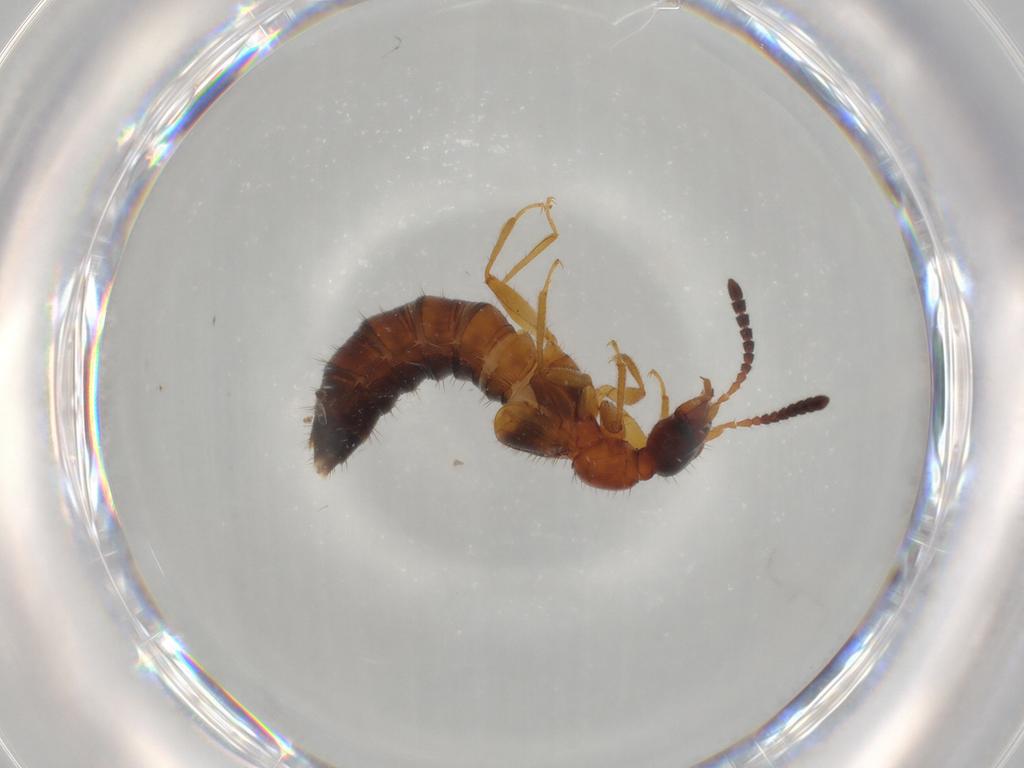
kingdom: Animalia
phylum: Arthropoda
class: Insecta
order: Coleoptera
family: Staphylinidae
